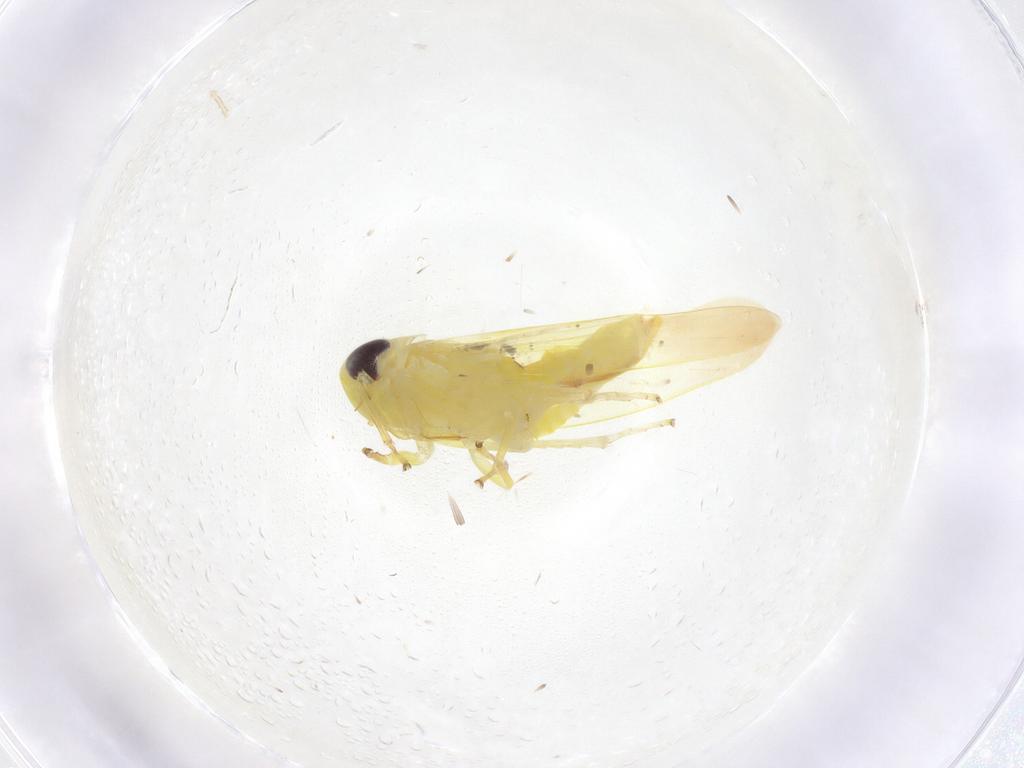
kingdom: Animalia
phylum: Arthropoda
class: Insecta
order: Hemiptera
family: Cicadellidae
